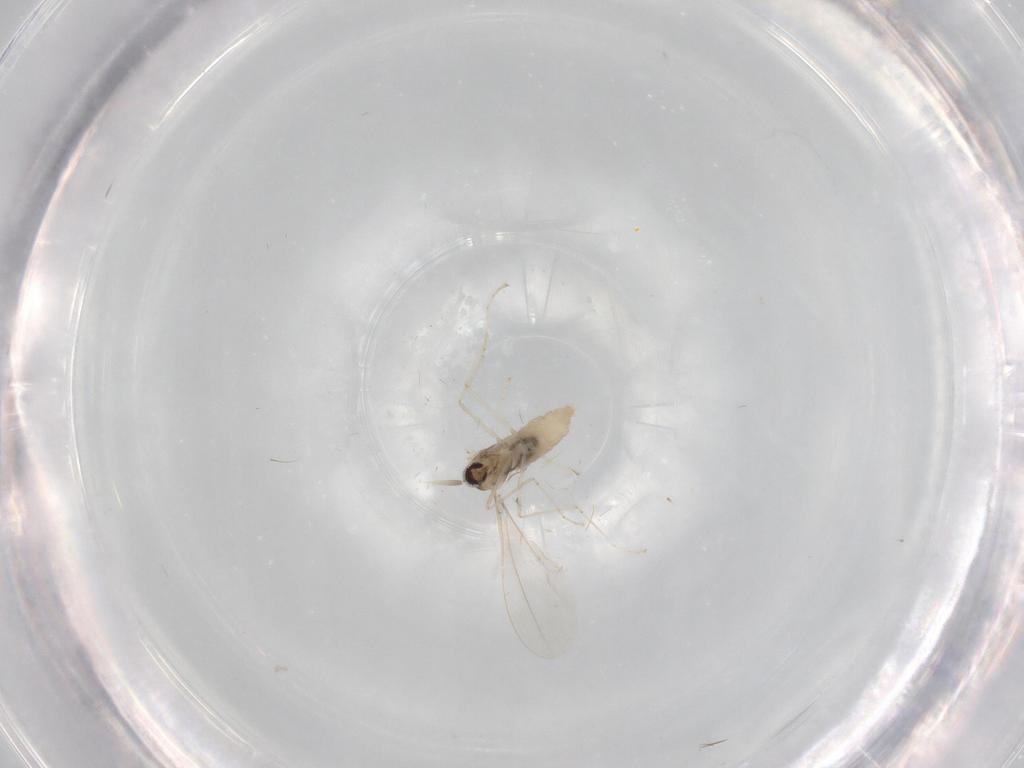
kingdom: Animalia
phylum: Arthropoda
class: Insecta
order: Diptera
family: Cecidomyiidae
